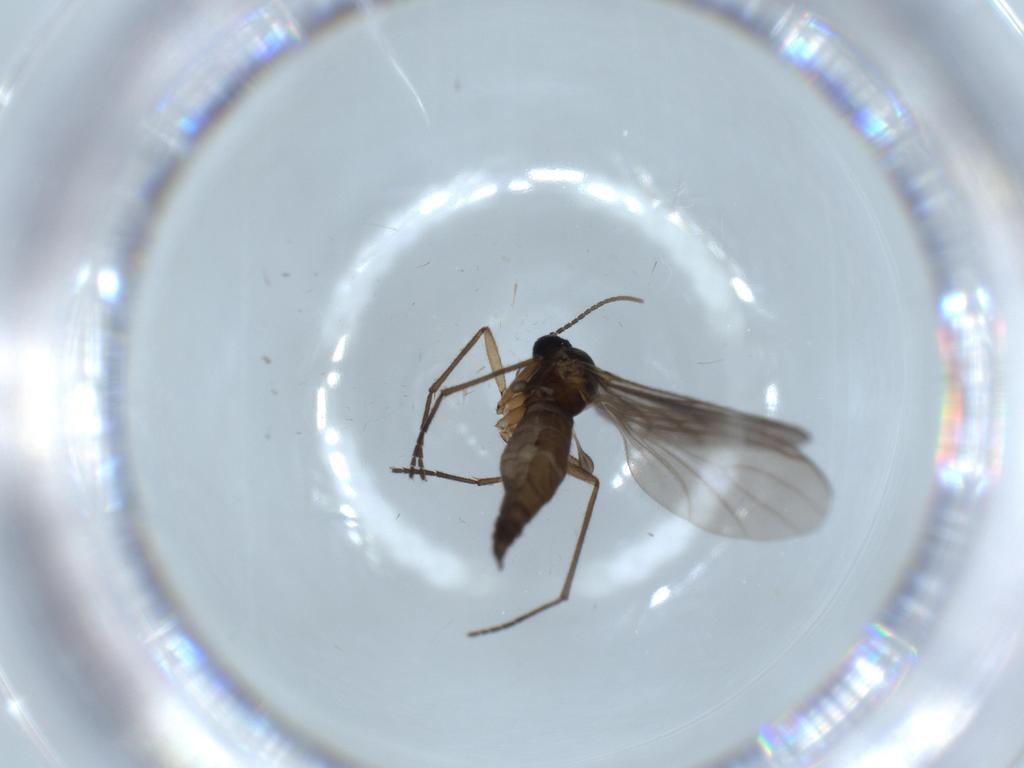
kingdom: Animalia
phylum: Arthropoda
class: Insecta
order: Diptera
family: Sciaridae
